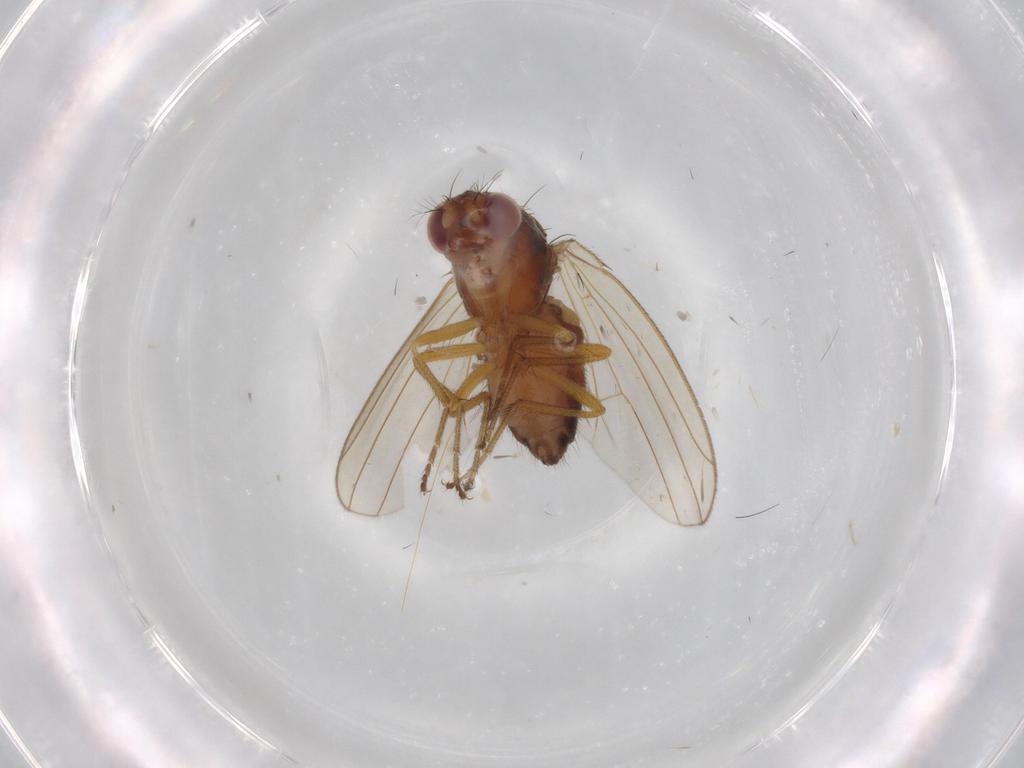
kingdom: Animalia
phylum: Arthropoda
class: Insecta
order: Diptera
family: Drosophilidae
